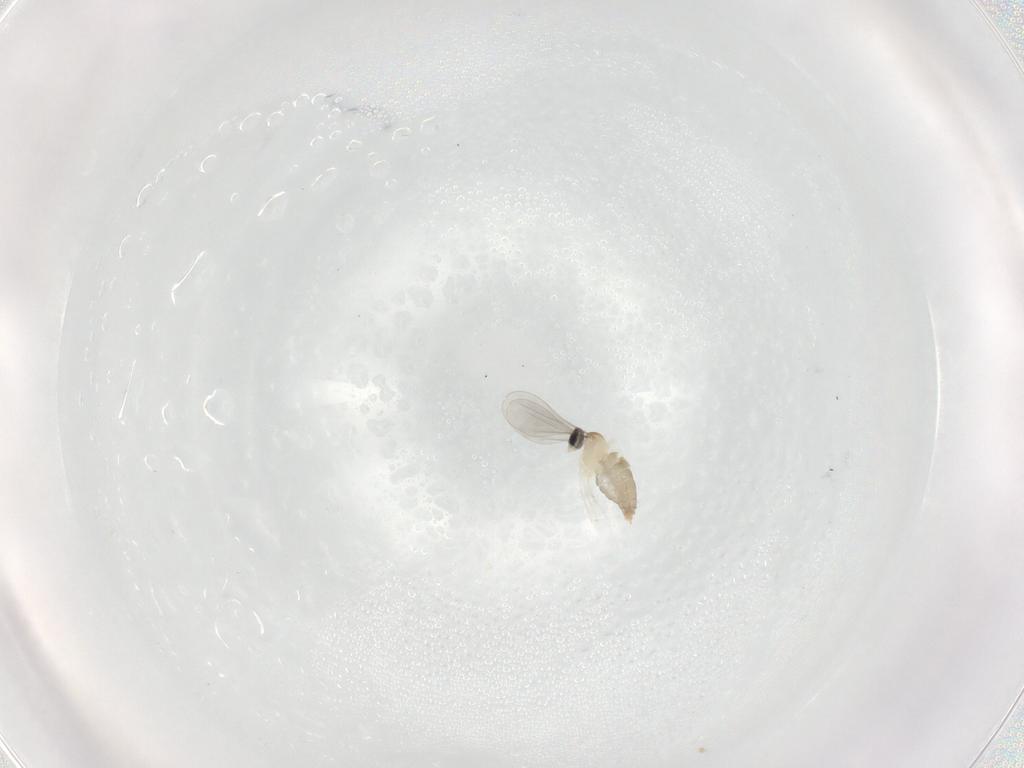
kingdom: Animalia
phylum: Arthropoda
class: Insecta
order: Diptera
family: Cecidomyiidae
